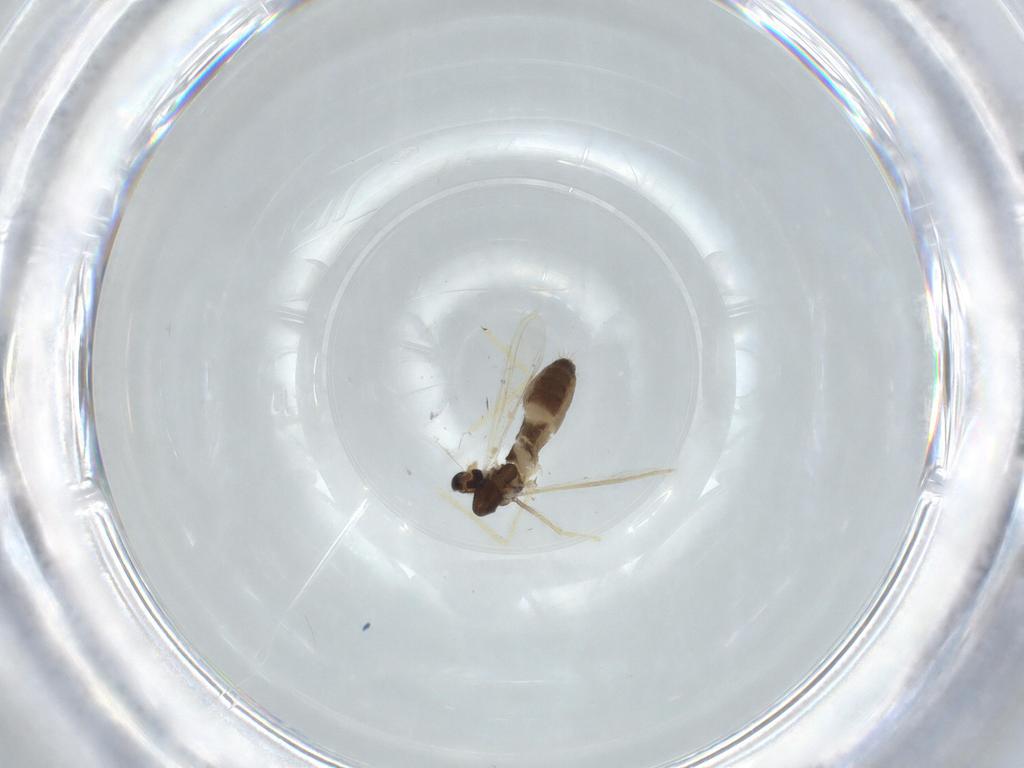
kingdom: Animalia
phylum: Arthropoda
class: Insecta
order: Diptera
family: Chironomidae
